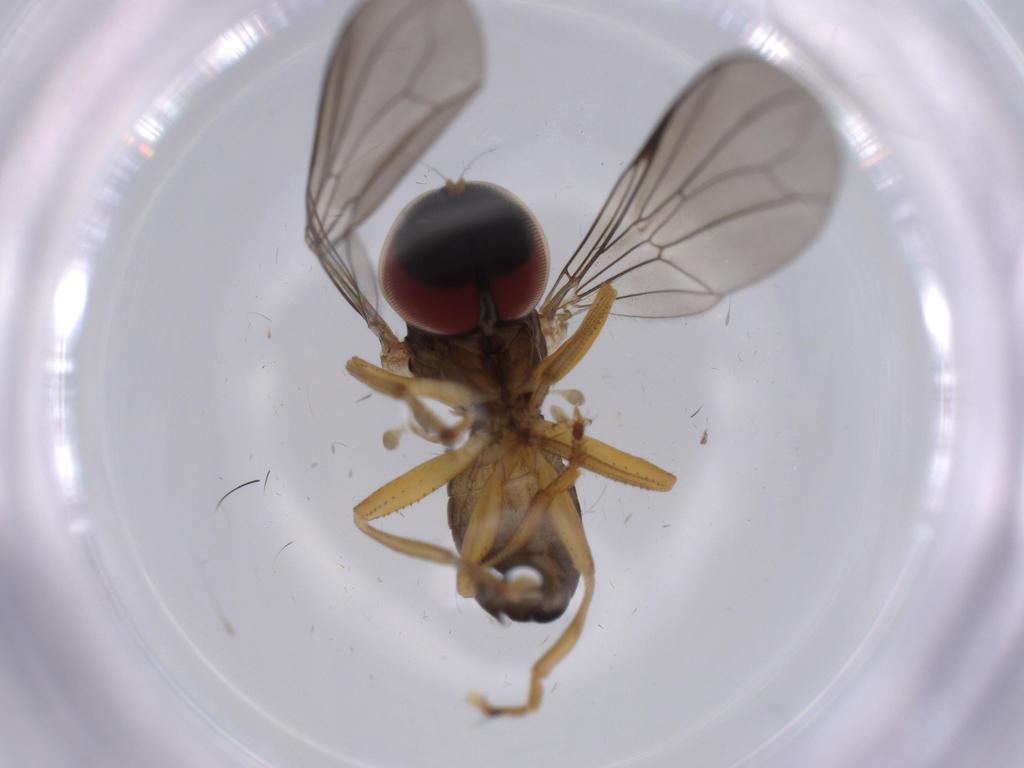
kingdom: Animalia
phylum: Arthropoda
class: Insecta
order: Diptera
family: Pipunculidae
